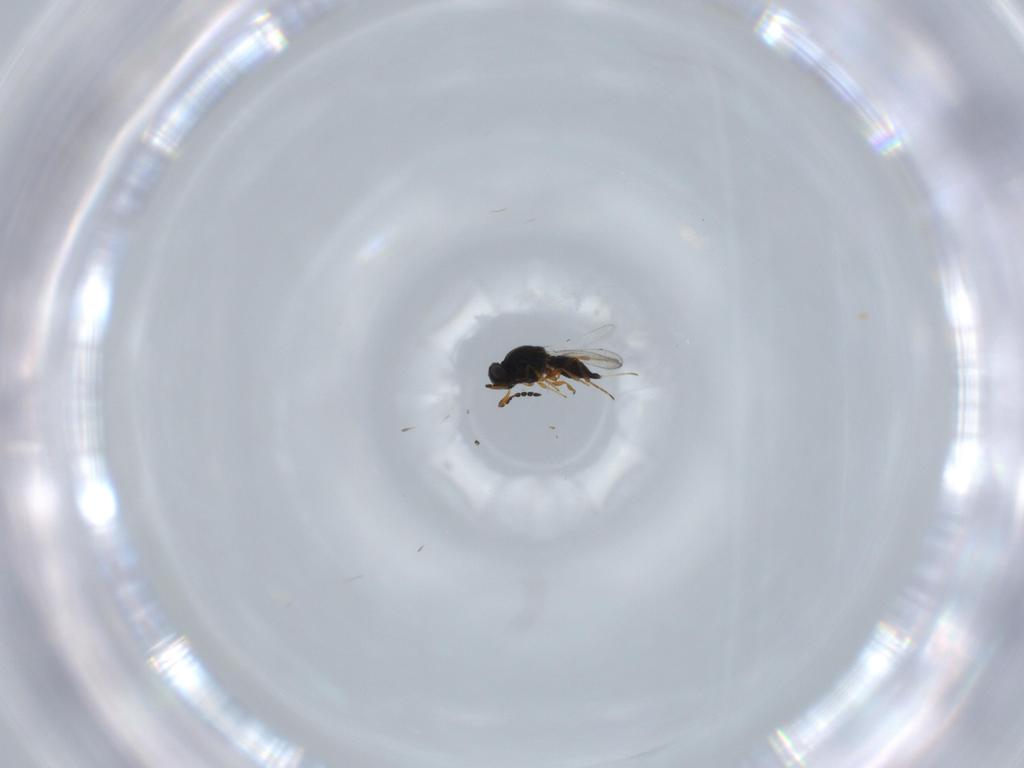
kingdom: Animalia
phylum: Arthropoda
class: Insecta
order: Hymenoptera
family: Platygastridae
